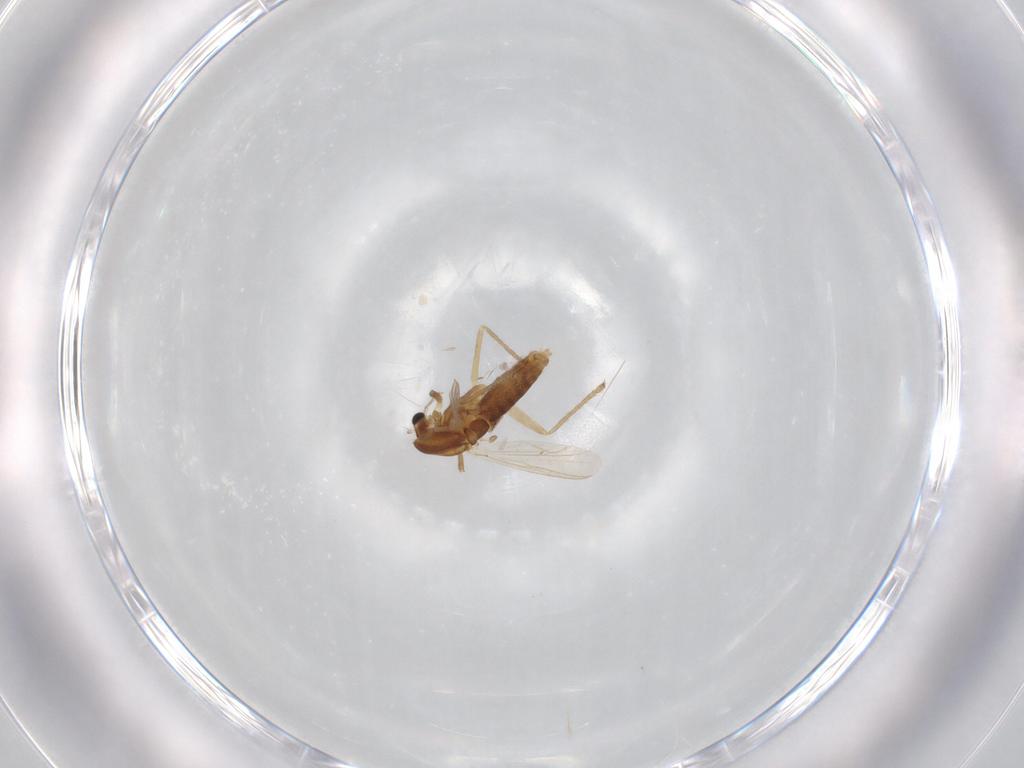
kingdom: Animalia
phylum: Arthropoda
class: Insecta
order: Diptera
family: Chironomidae
